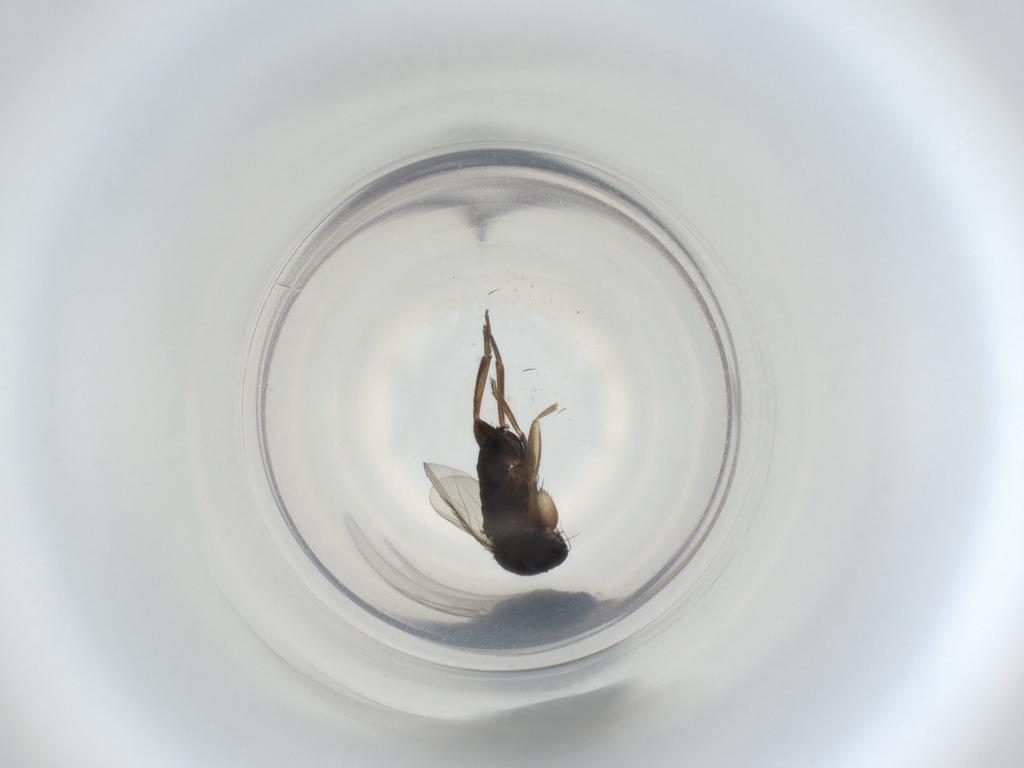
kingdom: Animalia
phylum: Arthropoda
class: Insecta
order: Diptera
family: Phoridae
